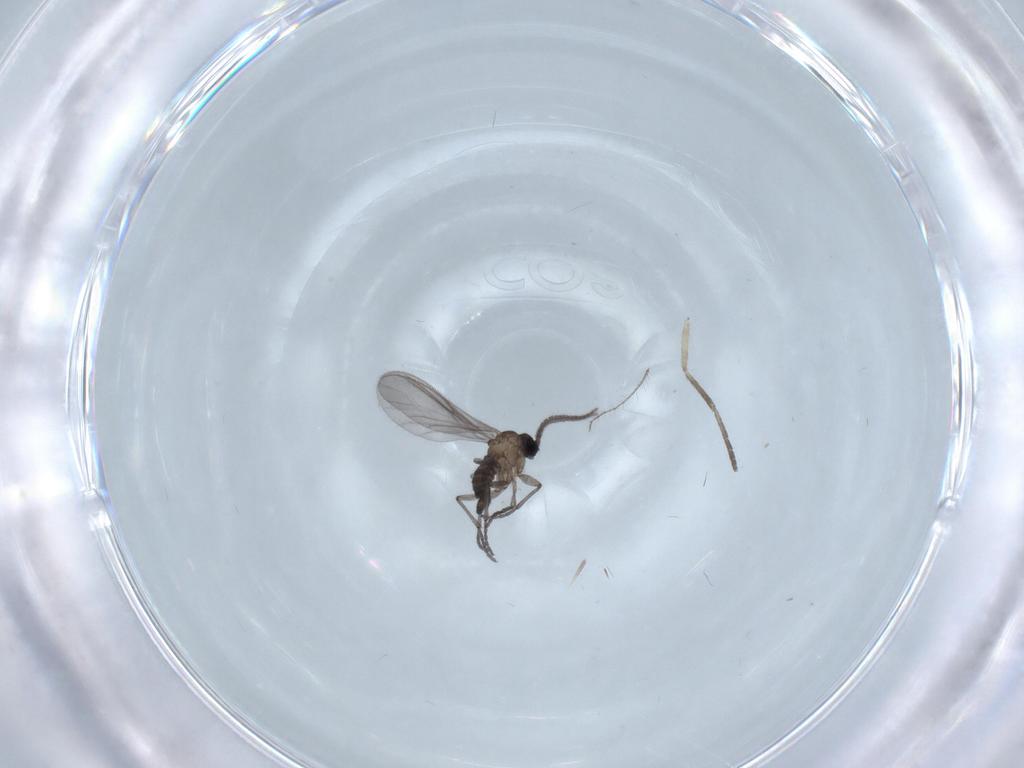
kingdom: Animalia
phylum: Arthropoda
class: Insecta
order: Diptera
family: Sciaridae
